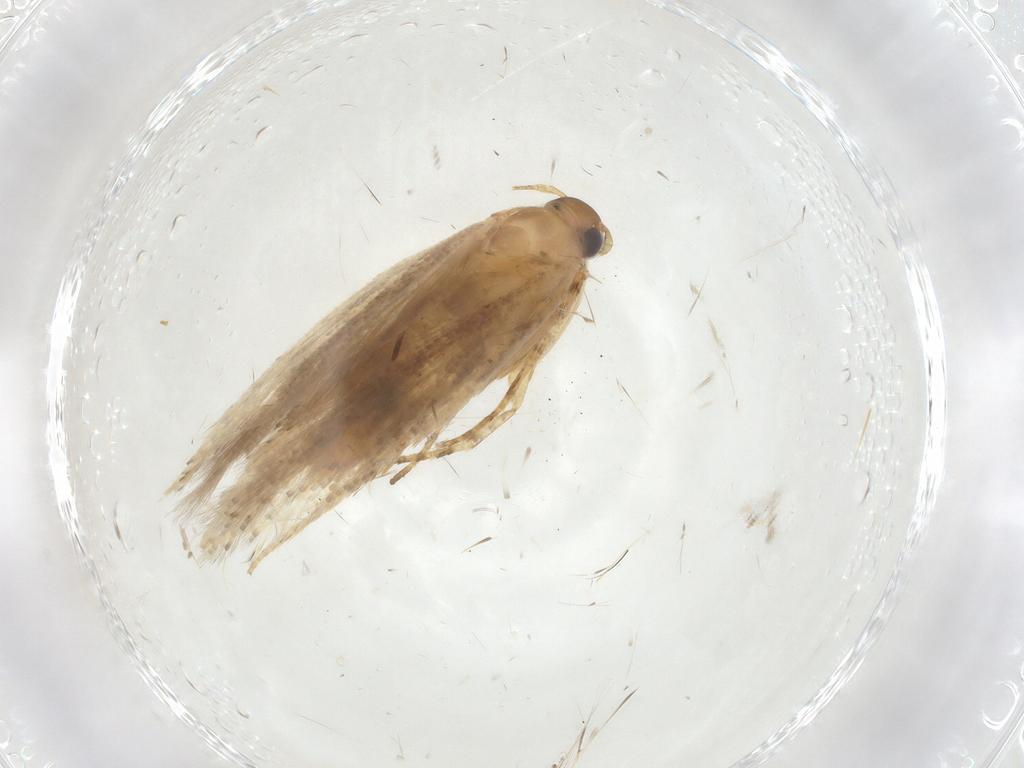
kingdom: Animalia
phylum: Arthropoda
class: Insecta
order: Lepidoptera
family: Gelechiidae
